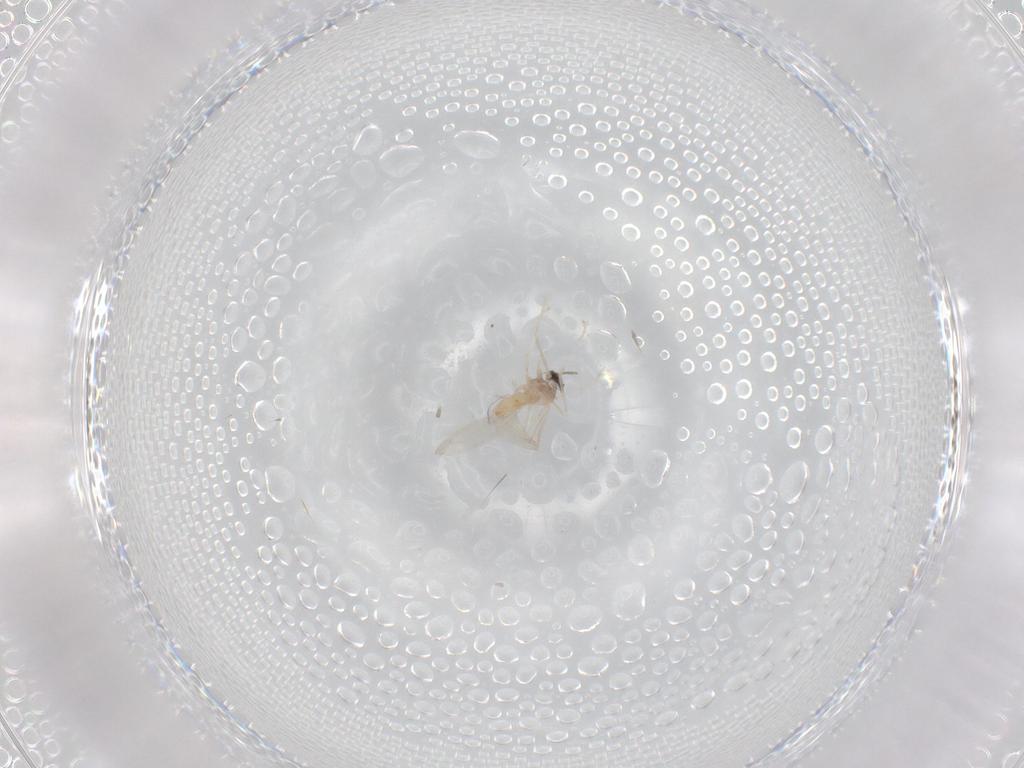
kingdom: Animalia
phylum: Arthropoda
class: Insecta
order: Diptera
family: Cecidomyiidae
